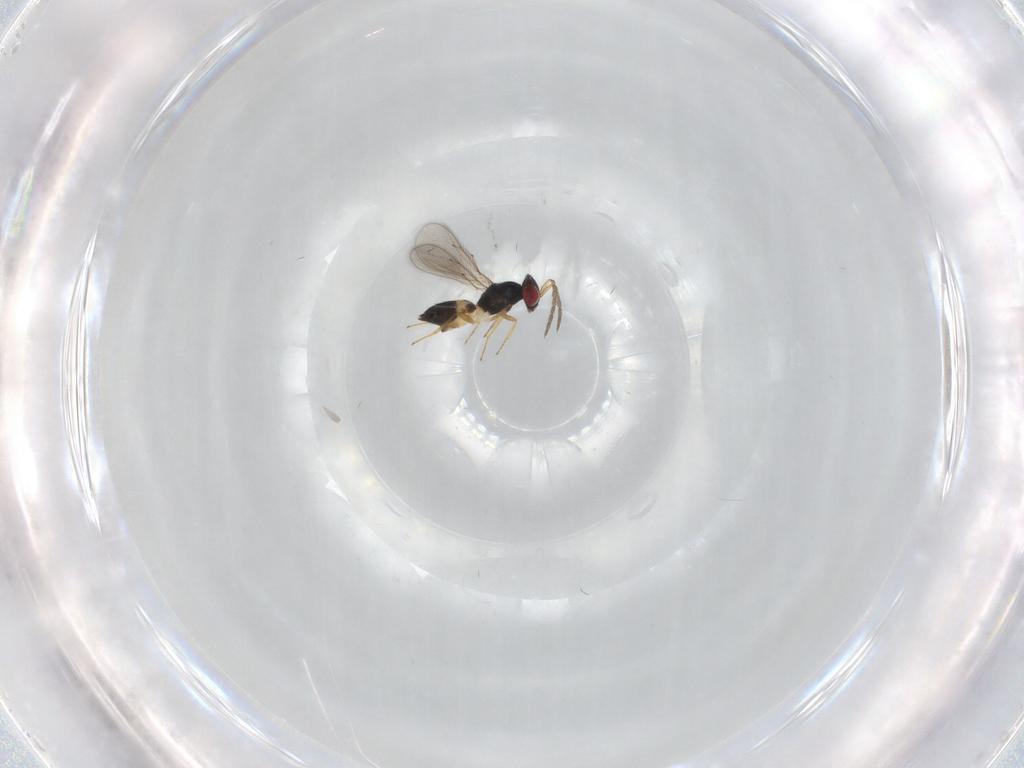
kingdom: Animalia
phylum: Arthropoda
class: Insecta
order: Hymenoptera
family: Eulophidae
